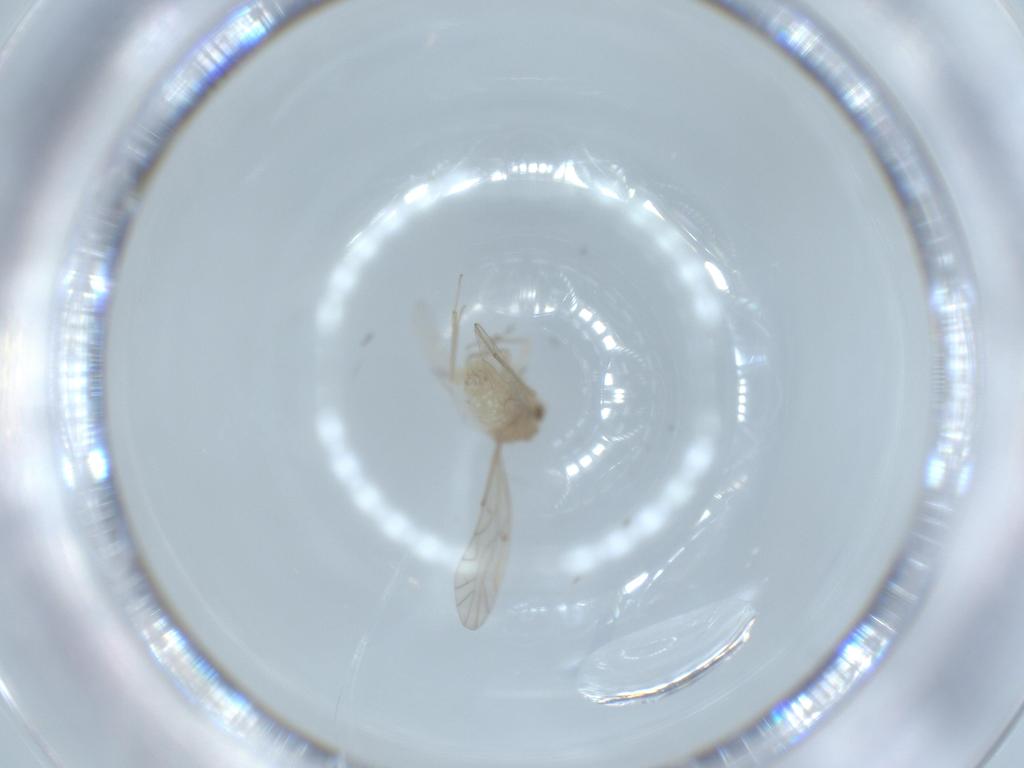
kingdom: Animalia
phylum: Arthropoda
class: Insecta
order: Psocodea
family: Lachesillidae
